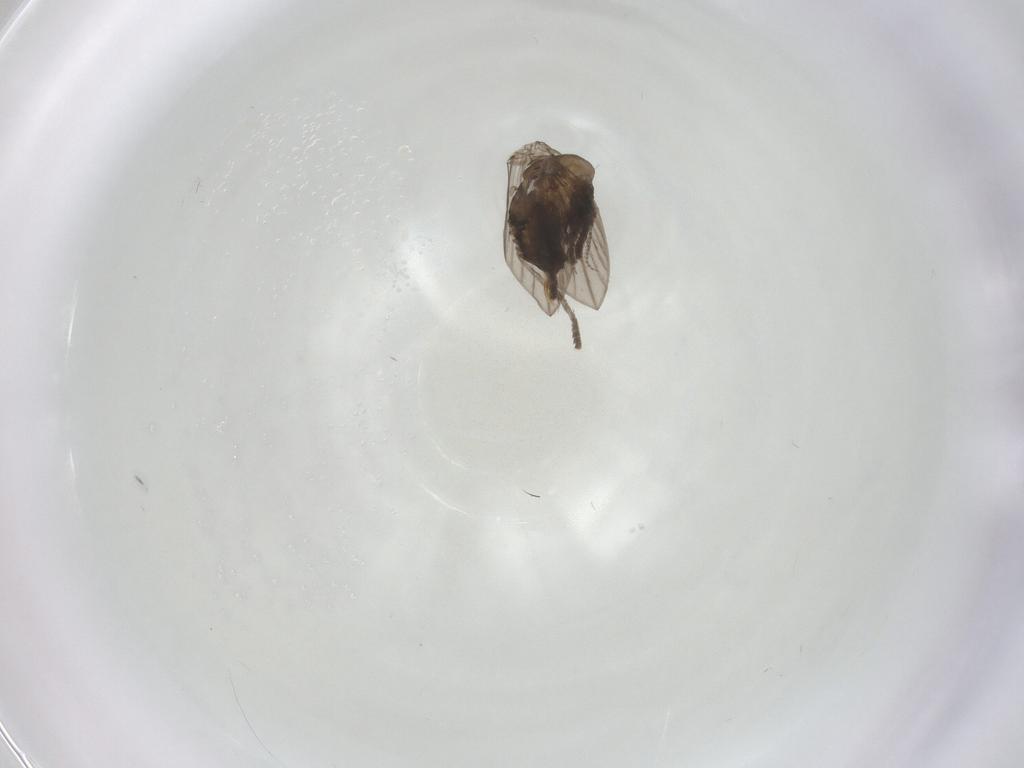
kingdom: Animalia
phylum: Arthropoda
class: Insecta
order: Diptera
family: Psychodidae
